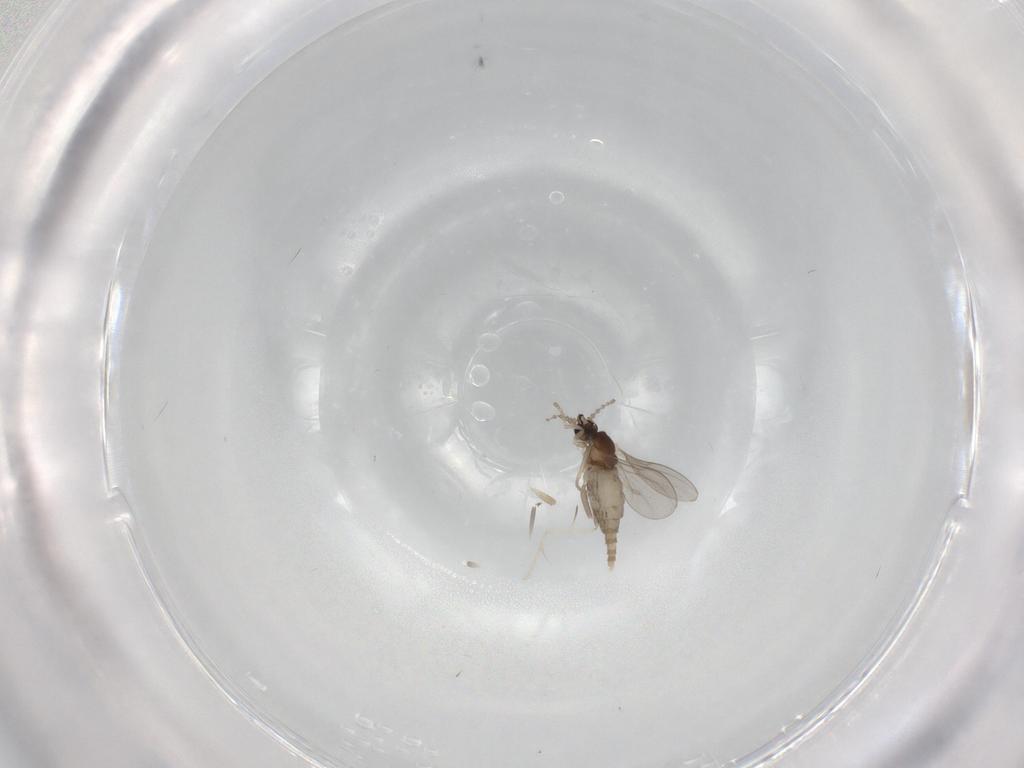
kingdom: Animalia
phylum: Arthropoda
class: Insecta
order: Diptera
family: Cecidomyiidae
